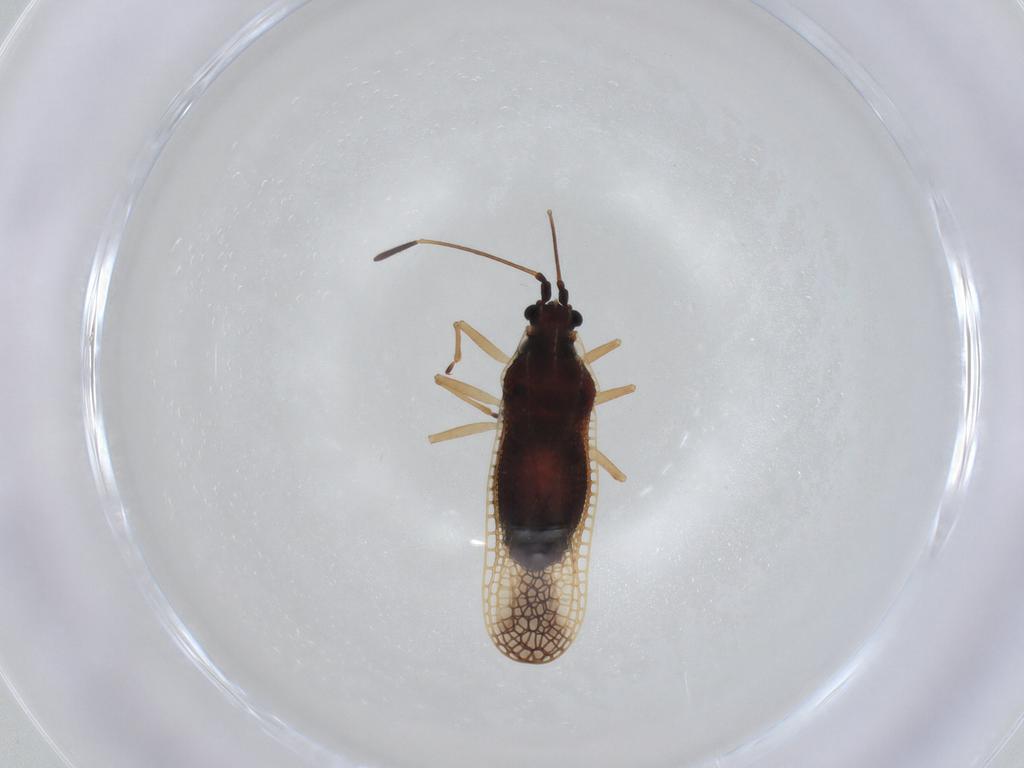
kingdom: Animalia
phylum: Arthropoda
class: Insecta
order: Hemiptera
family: Tingidae
